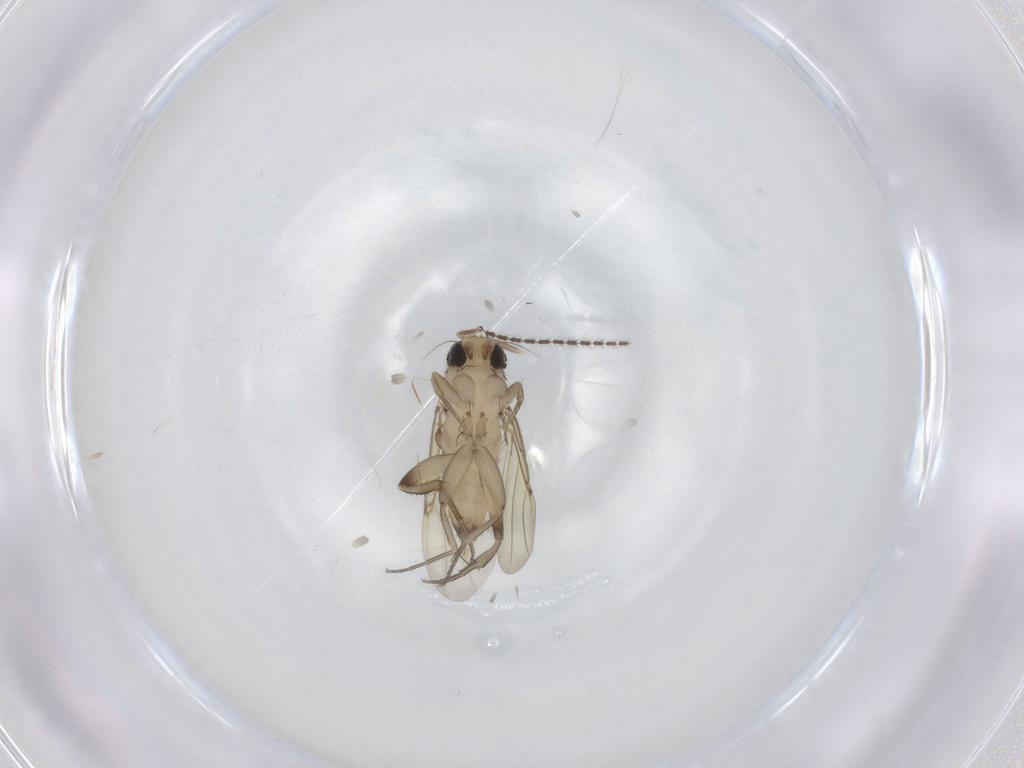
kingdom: Animalia
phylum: Arthropoda
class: Insecta
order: Diptera
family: Phoridae
